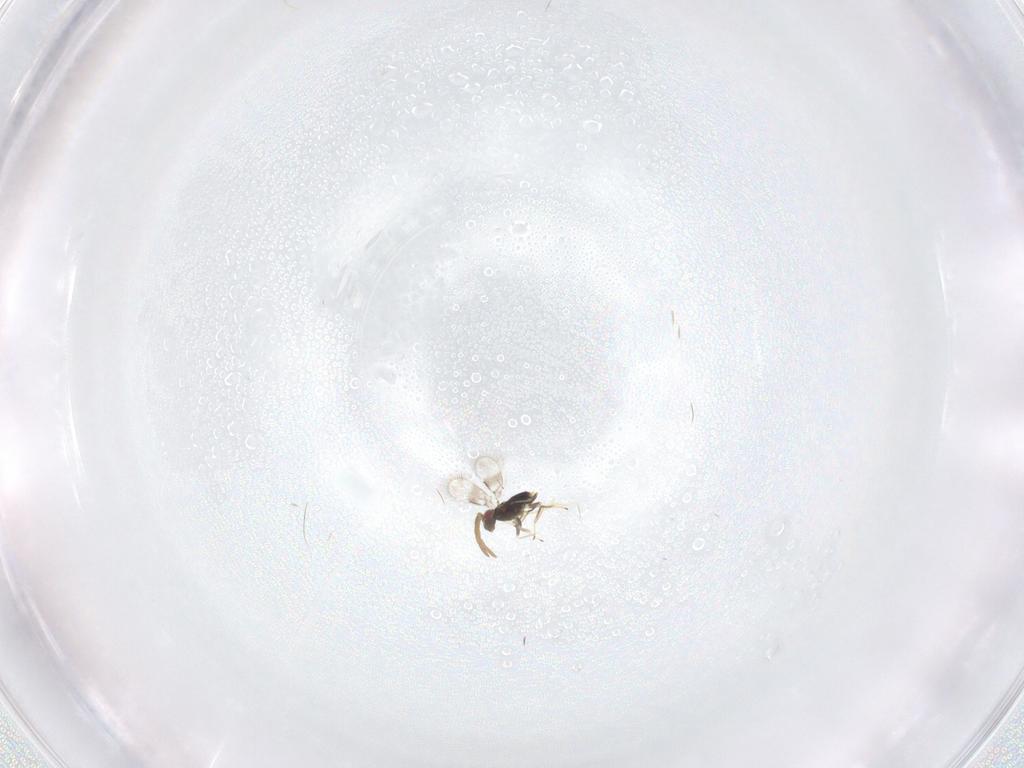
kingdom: Animalia
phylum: Arthropoda
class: Insecta
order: Hymenoptera
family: Azotidae
